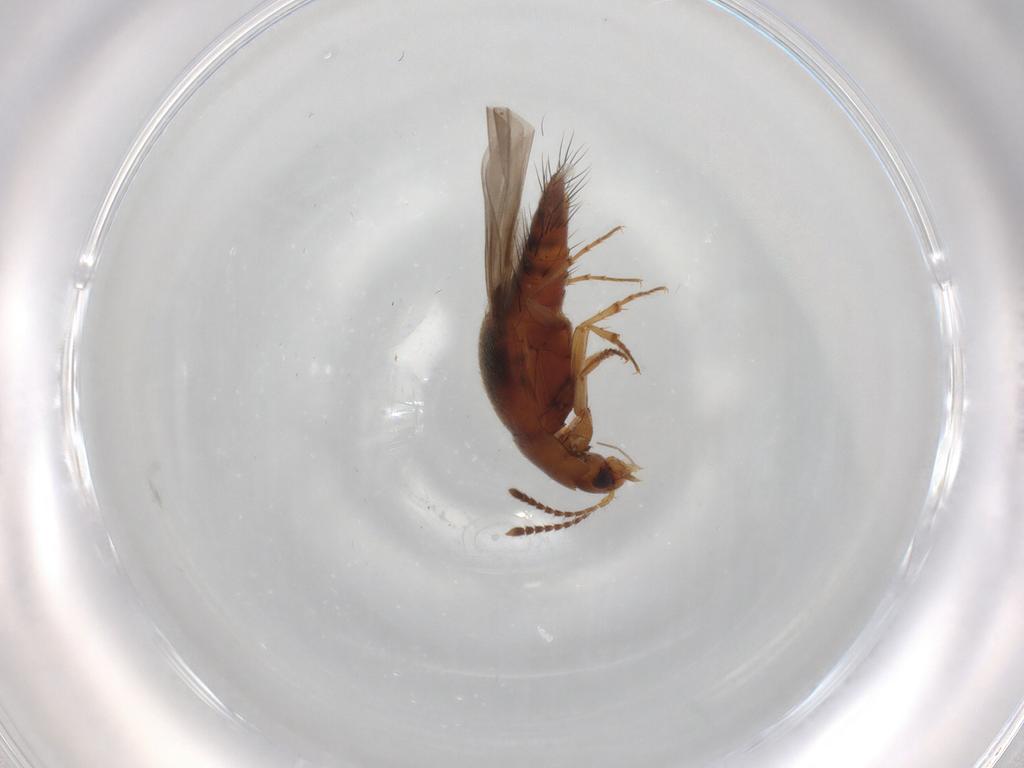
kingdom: Animalia
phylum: Arthropoda
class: Insecta
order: Coleoptera
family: Staphylinidae
